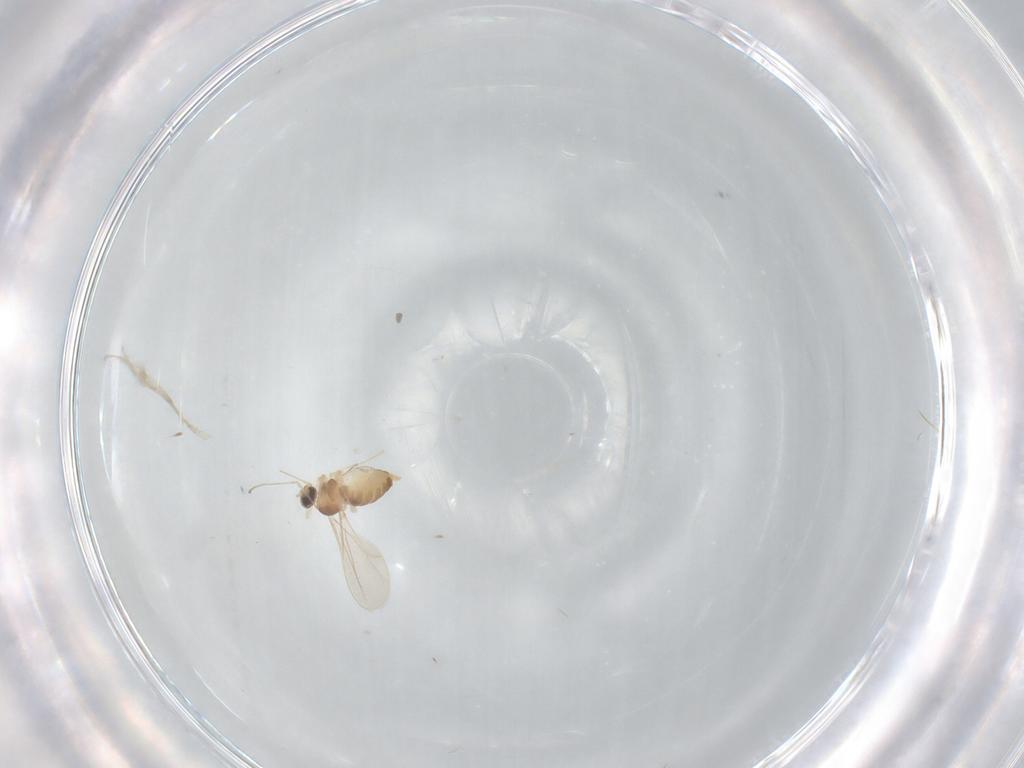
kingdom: Animalia
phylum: Arthropoda
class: Insecta
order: Diptera
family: Cecidomyiidae
